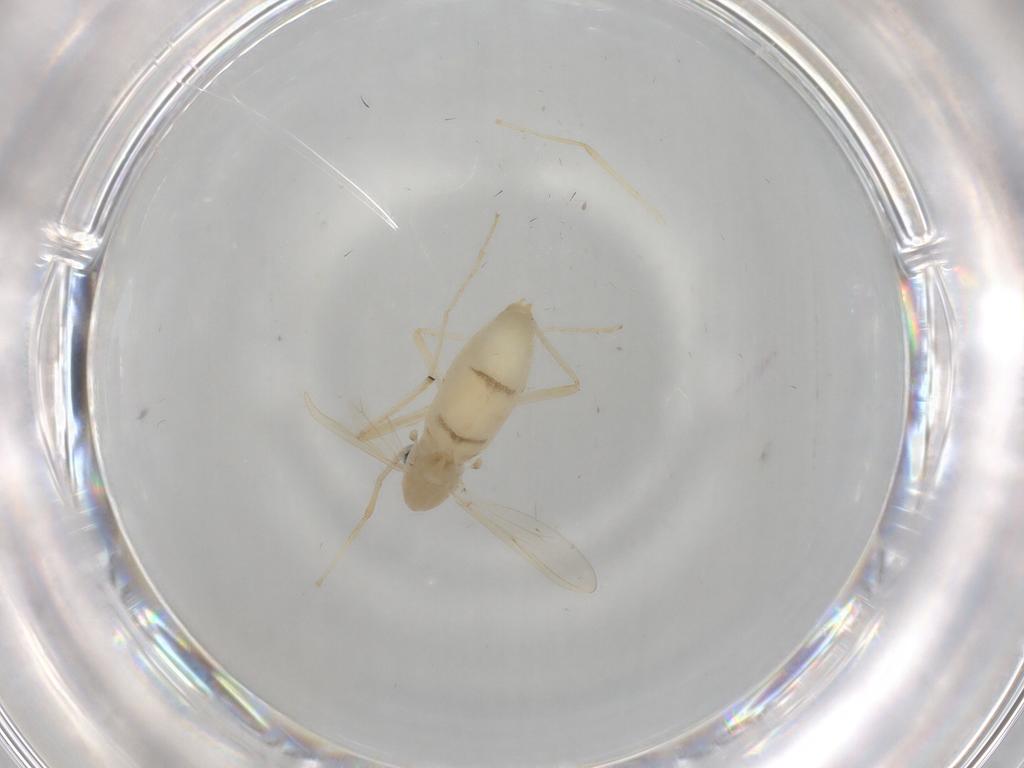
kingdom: Animalia
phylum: Arthropoda
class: Insecta
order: Diptera
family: Chironomidae
